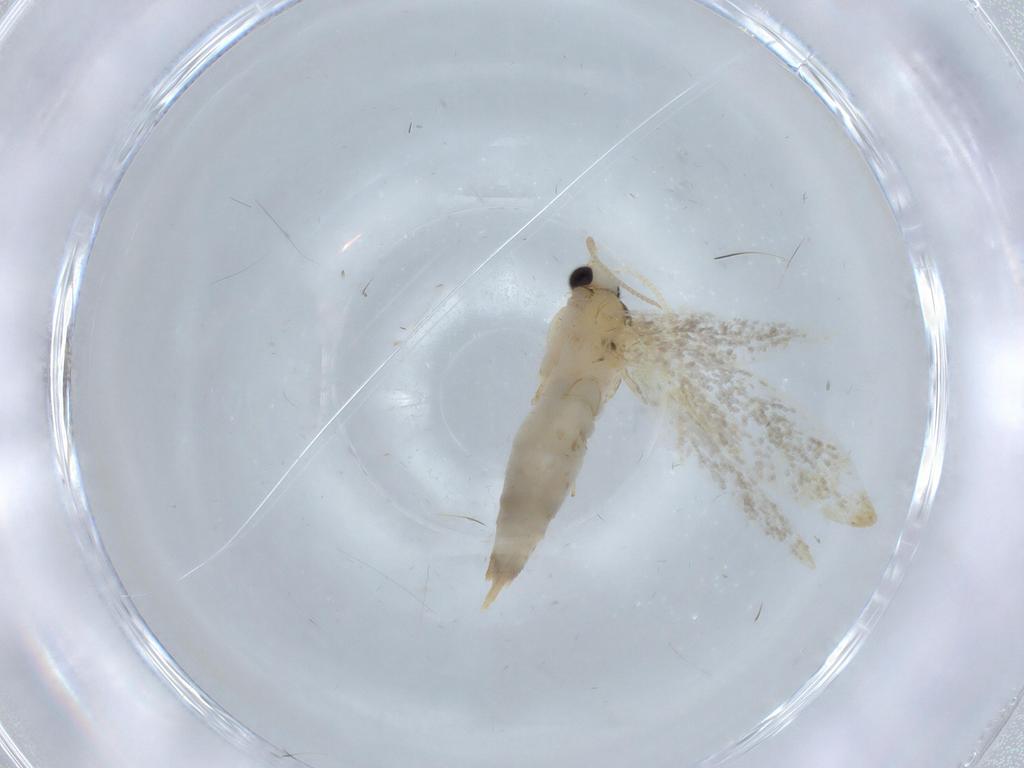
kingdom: Animalia
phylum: Arthropoda
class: Insecta
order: Lepidoptera
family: Tineidae
